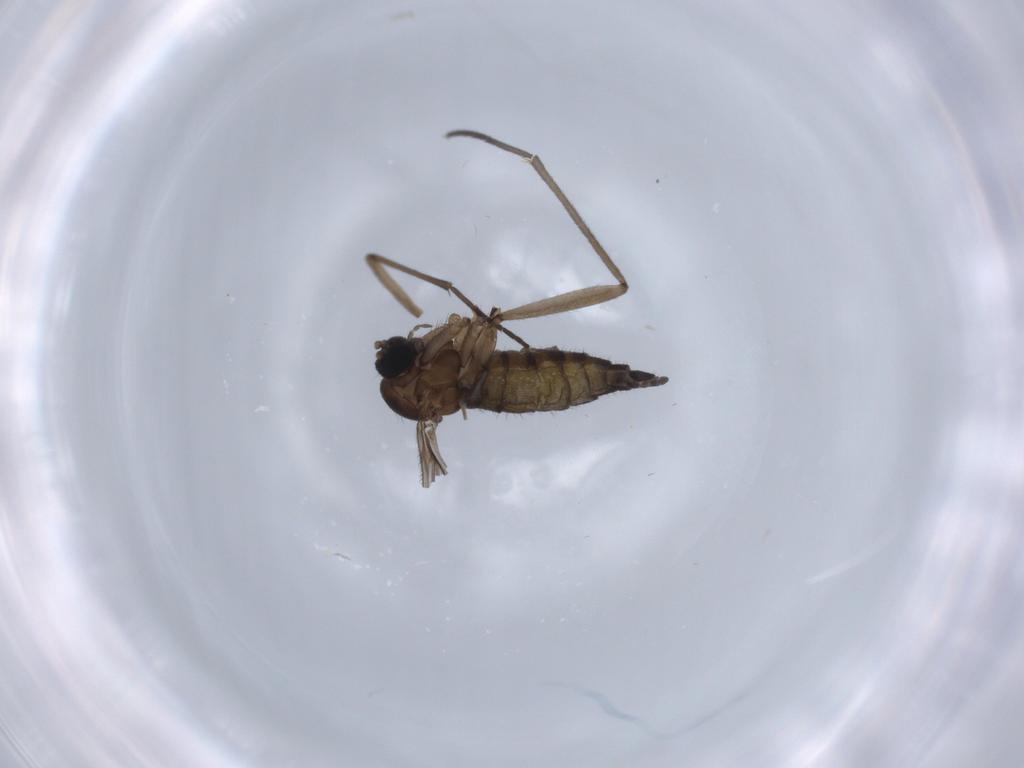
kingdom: Animalia
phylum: Arthropoda
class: Insecta
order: Diptera
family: Sciaridae
